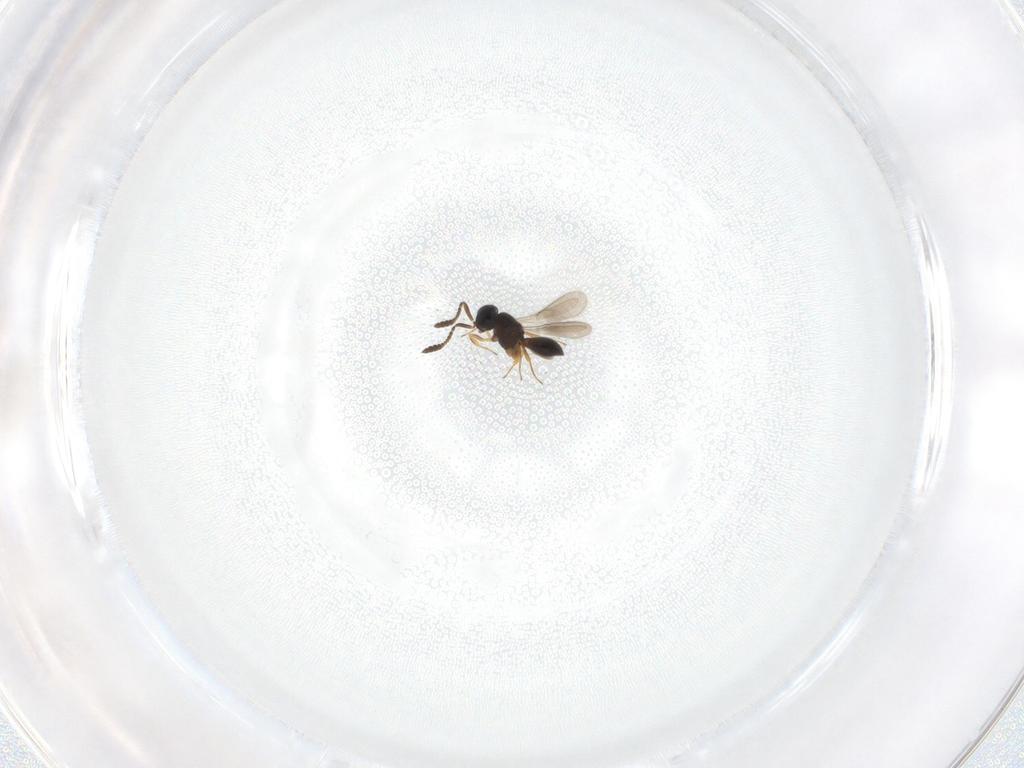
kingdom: Animalia
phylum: Arthropoda
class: Insecta
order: Hymenoptera
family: Scelionidae
